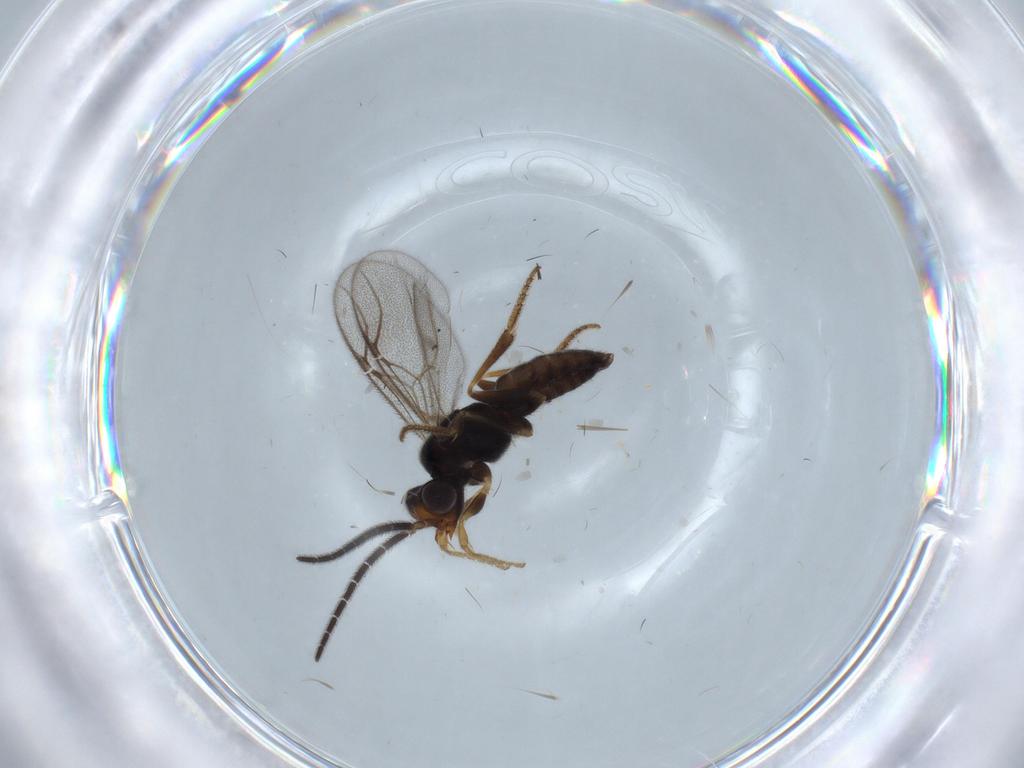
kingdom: Animalia
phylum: Arthropoda
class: Insecta
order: Hymenoptera
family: Dryinidae
